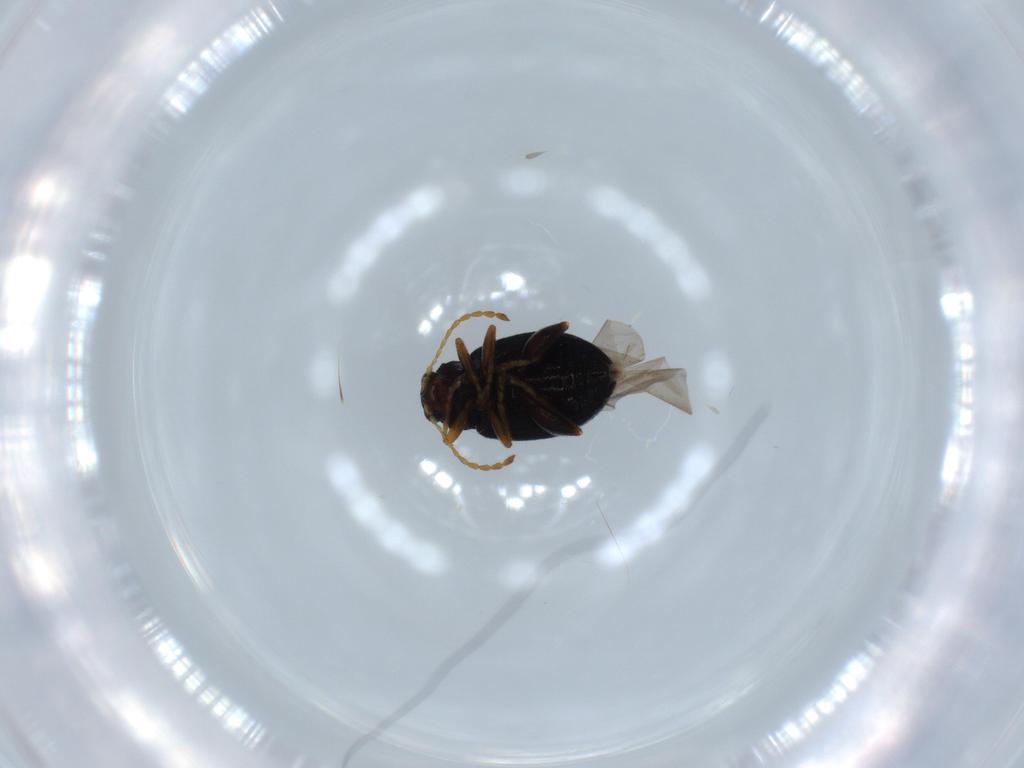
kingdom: Animalia
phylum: Arthropoda
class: Insecta
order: Coleoptera
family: Chrysomelidae
